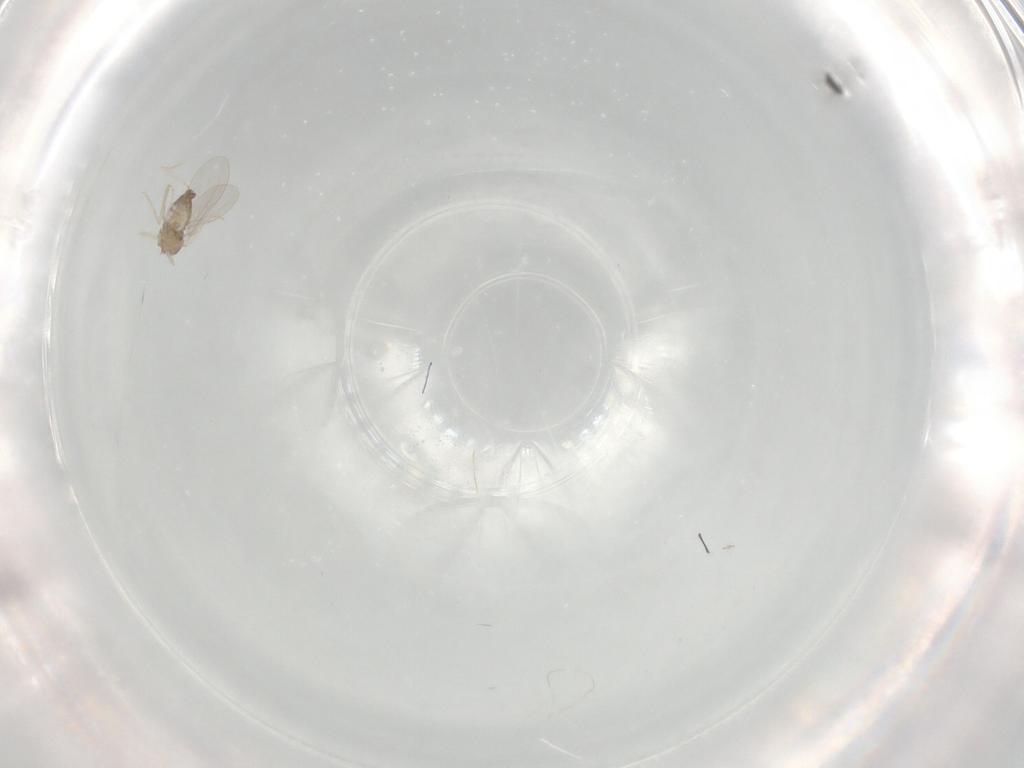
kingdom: Animalia
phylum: Arthropoda
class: Insecta
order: Diptera
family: Cecidomyiidae
